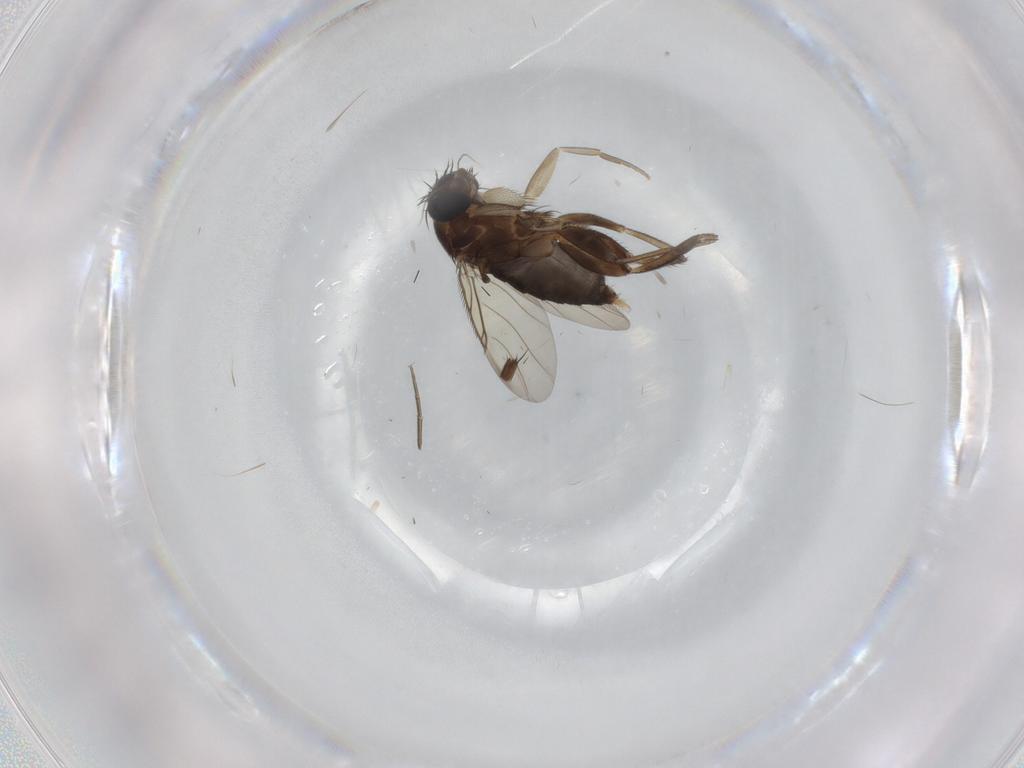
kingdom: Animalia
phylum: Arthropoda
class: Insecta
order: Diptera
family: Phoridae
